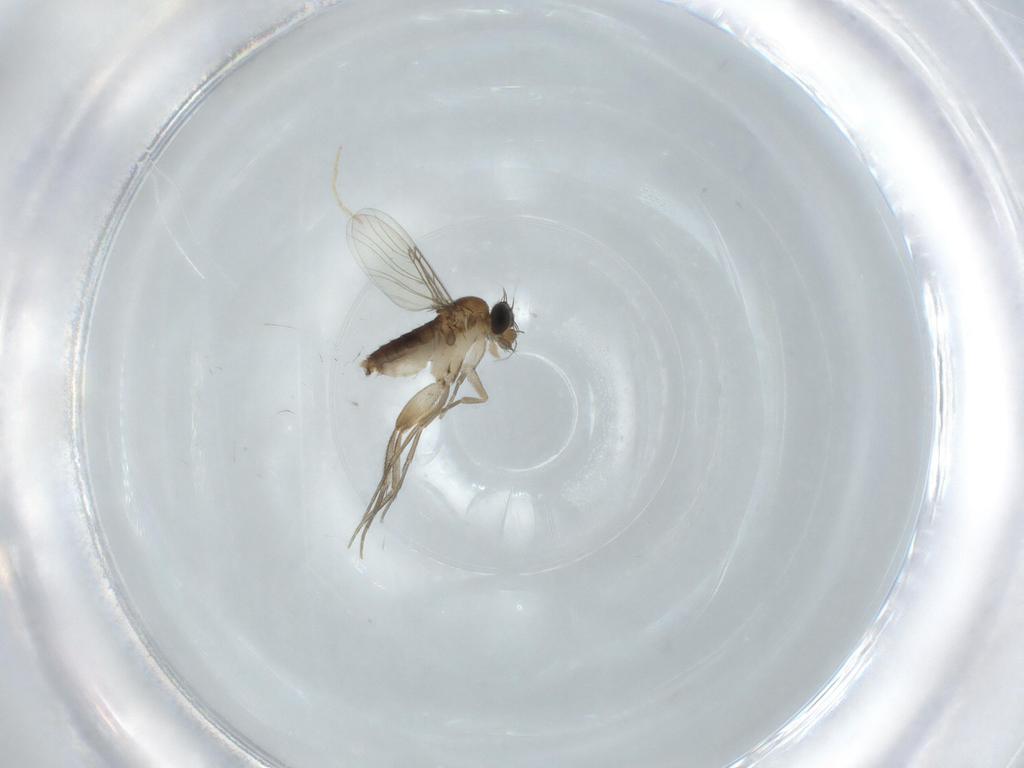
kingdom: Animalia
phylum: Arthropoda
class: Insecta
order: Diptera
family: Phoridae
